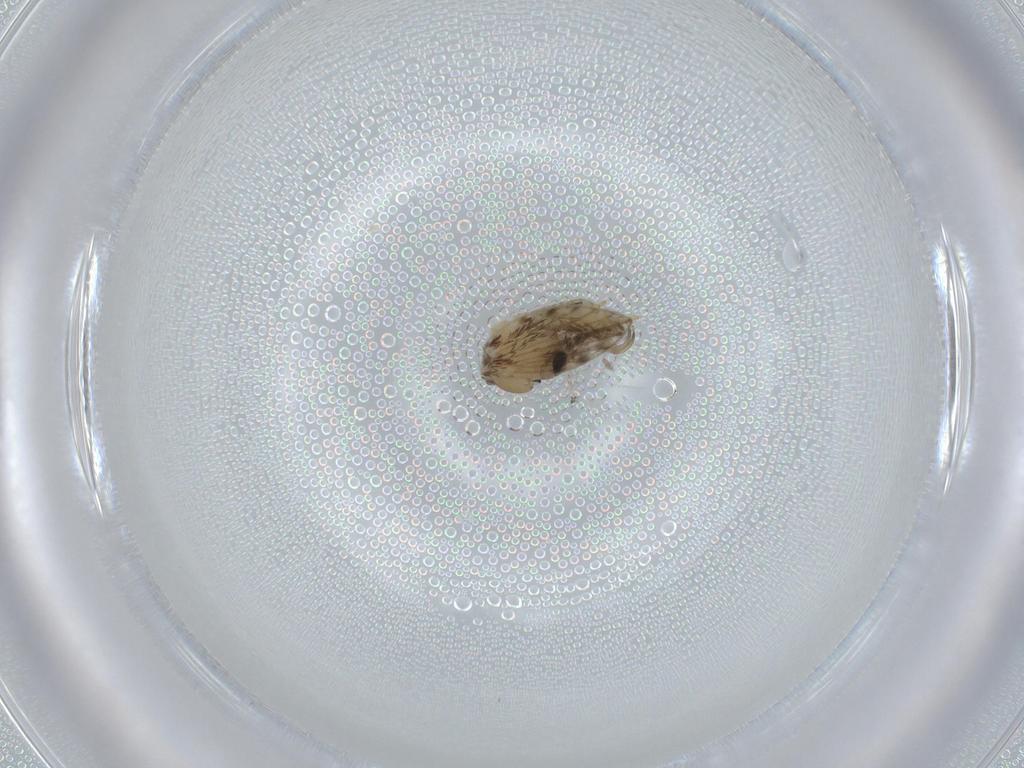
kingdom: Animalia
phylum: Arthropoda
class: Insecta
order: Diptera
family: Psychodidae
